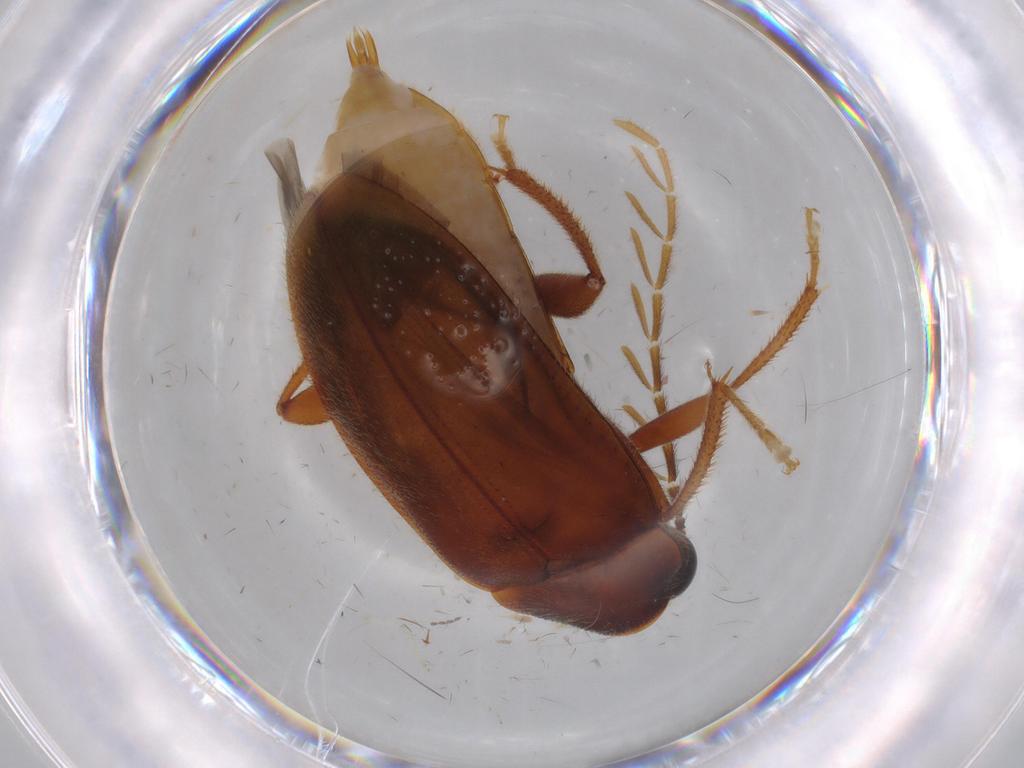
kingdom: Animalia
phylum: Arthropoda
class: Insecta
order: Coleoptera
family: Ptilodactylidae
